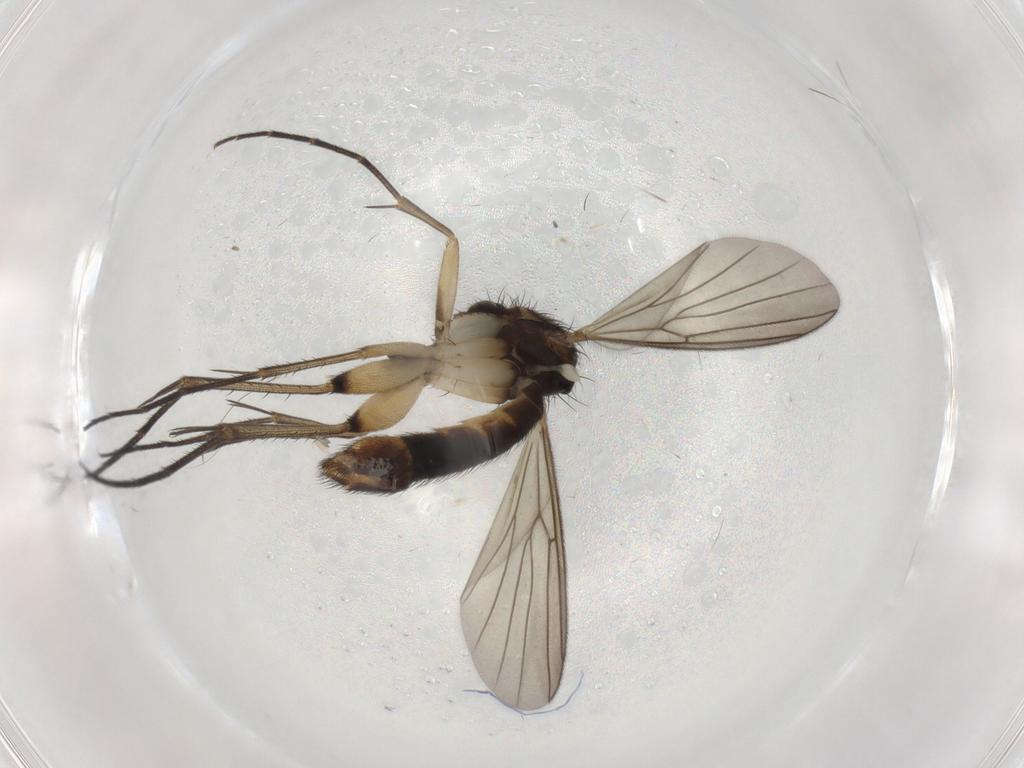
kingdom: Animalia
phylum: Arthropoda
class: Insecta
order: Diptera
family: Mycetophilidae
